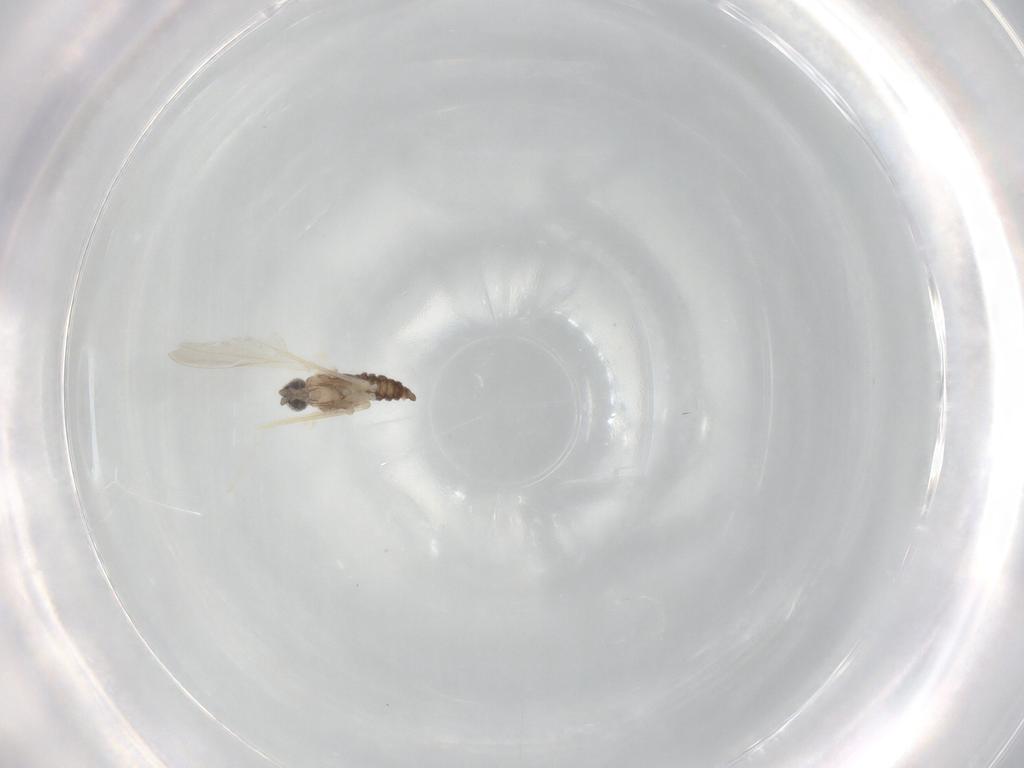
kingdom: Animalia
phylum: Arthropoda
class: Insecta
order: Diptera
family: Cecidomyiidae
